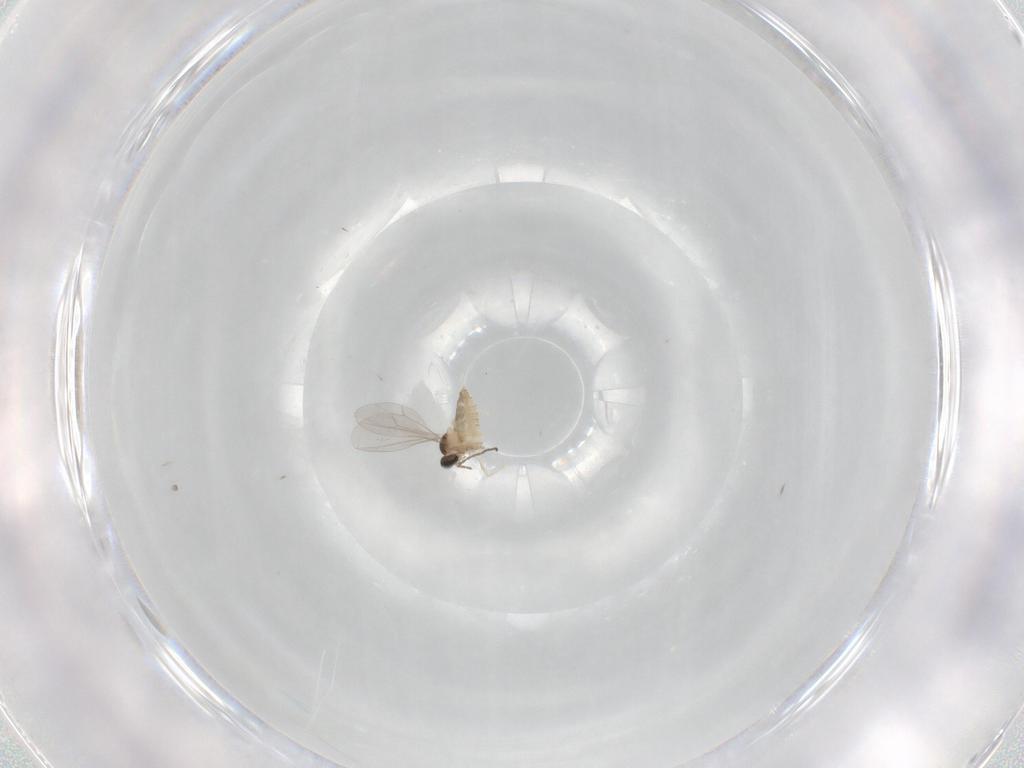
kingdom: Animalia
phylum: Arthropoda
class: Insecta
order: Diptera
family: Cecidomyiidae
